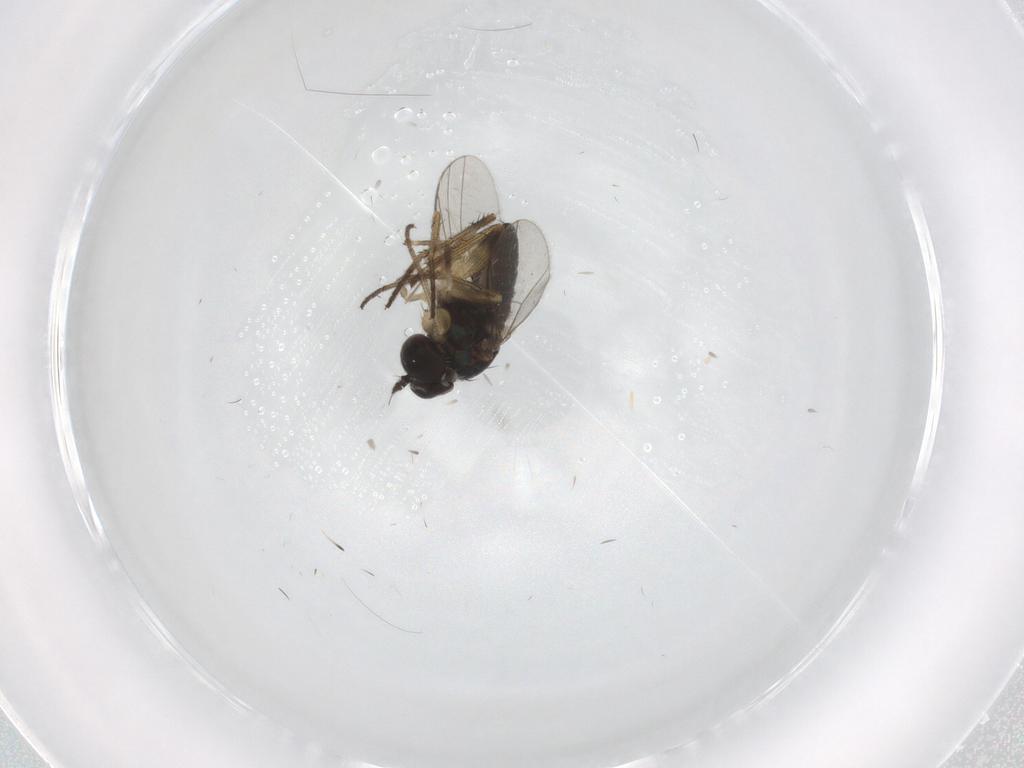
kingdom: Animalia
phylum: Arthropoda
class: Insecta
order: Diptera
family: Chironomidae
